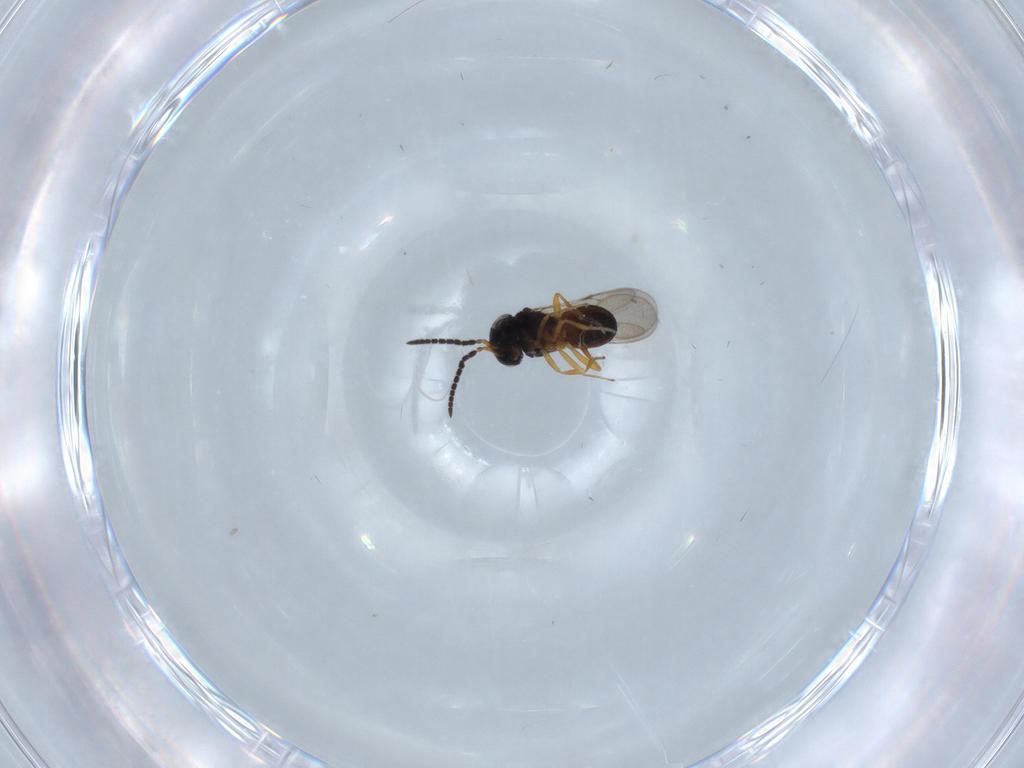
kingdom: Animalia
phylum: Arthropoda
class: Insecta
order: Hymenoptera
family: Scelionidae
